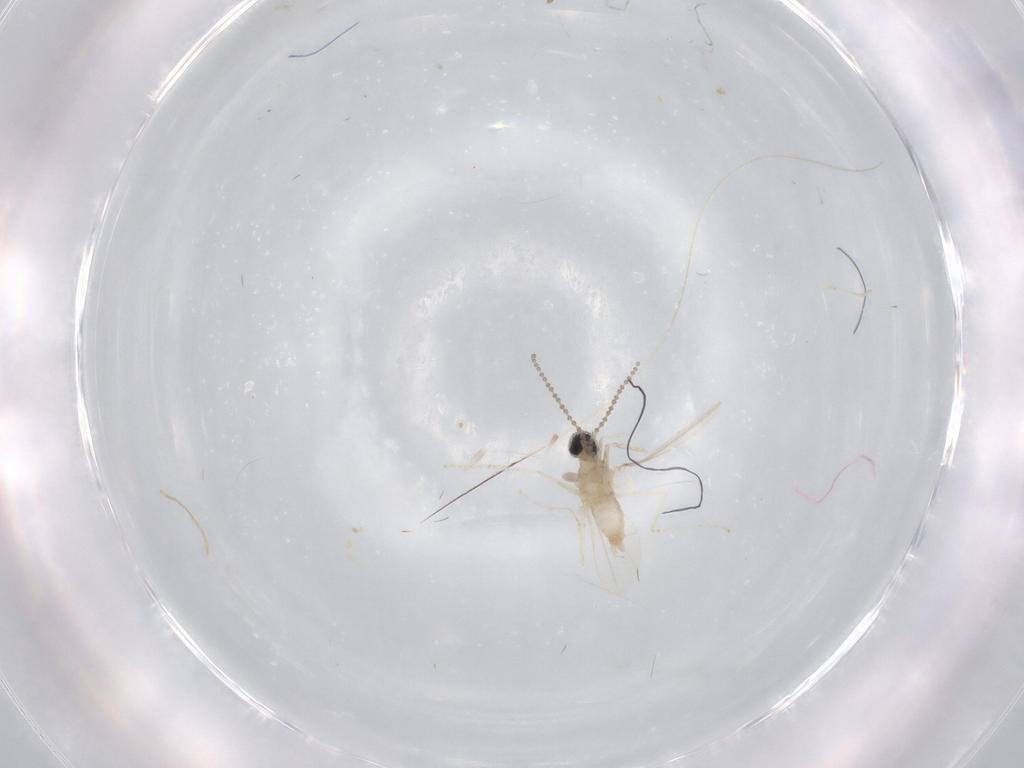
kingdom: Animalia
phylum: Arthropoda
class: Insecta
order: Diptera
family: Cecidomyiidae
